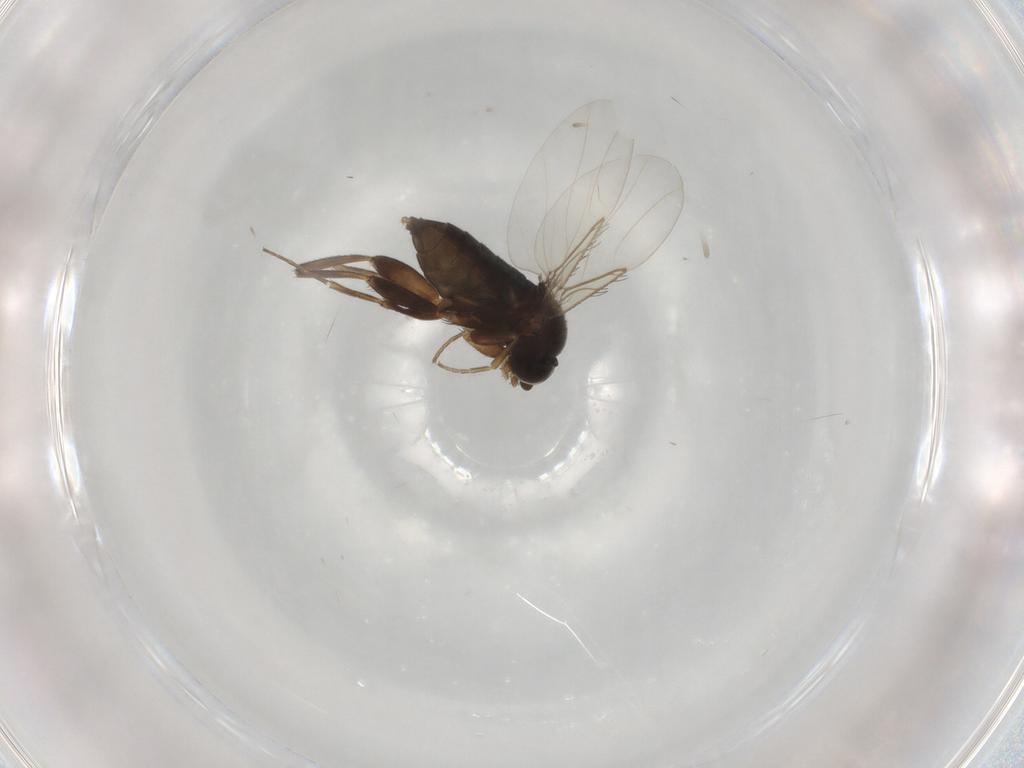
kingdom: Animalia
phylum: Arthropoda
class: Insecta
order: Diptera
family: Phoridae
